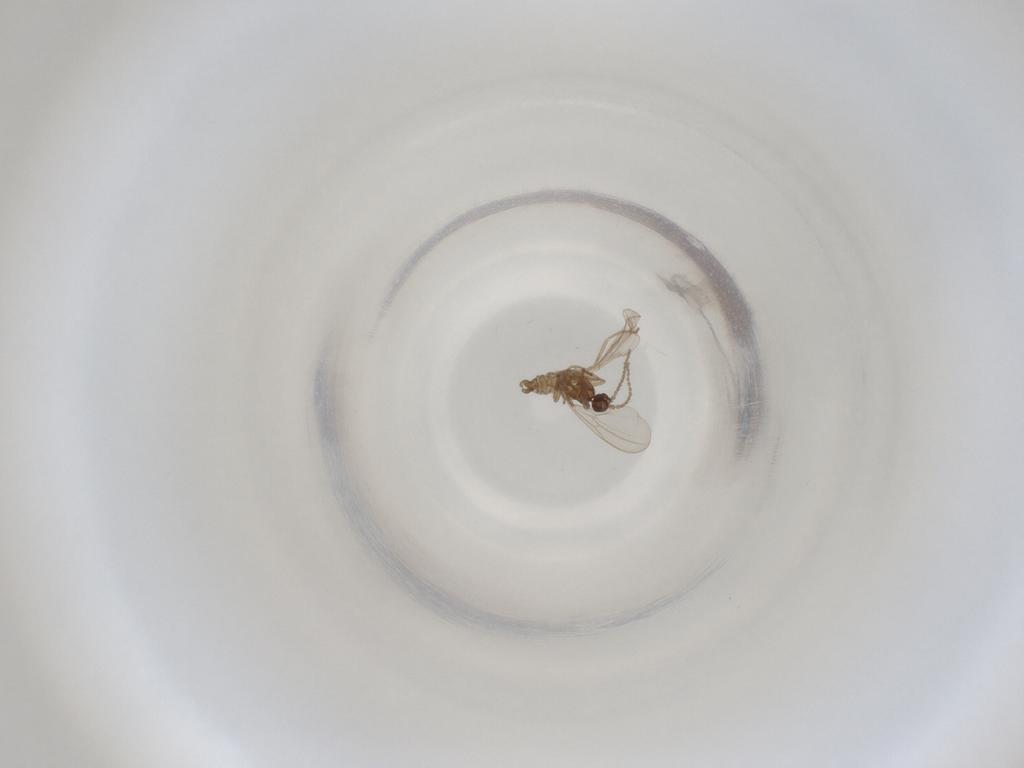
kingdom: Animalia
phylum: Arthropoda
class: Insecta
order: Diptera
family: Cecidomyiidae
